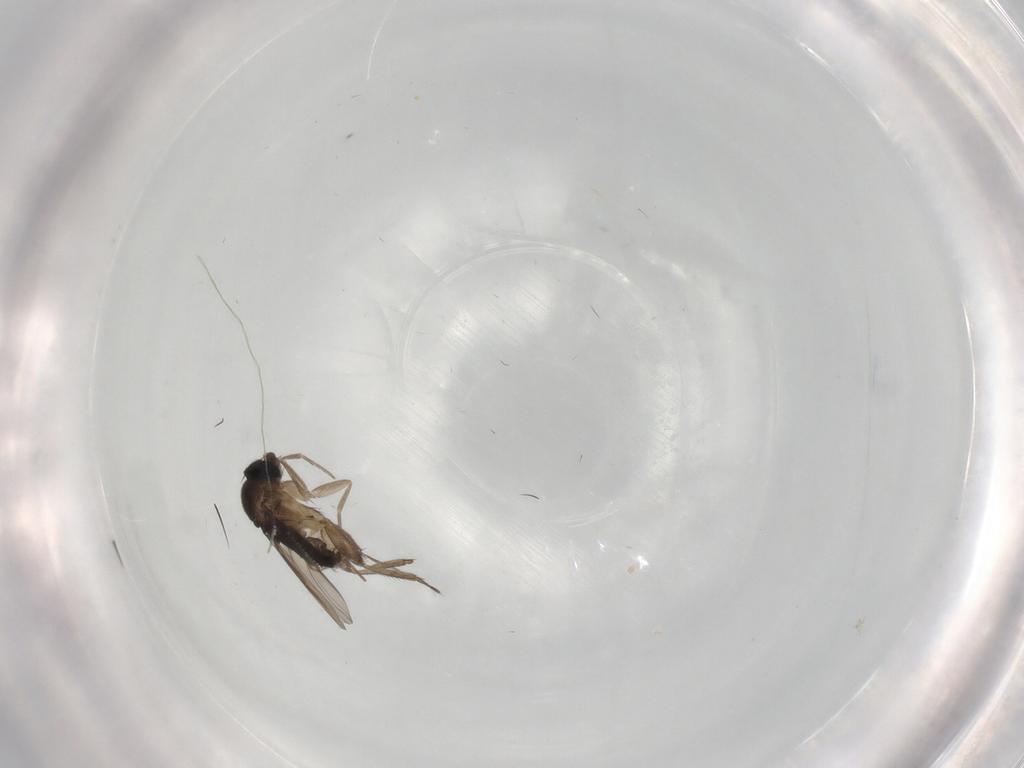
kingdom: Animalia
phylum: Arthropoda
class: Insecta
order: Diptera
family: Phoridae
